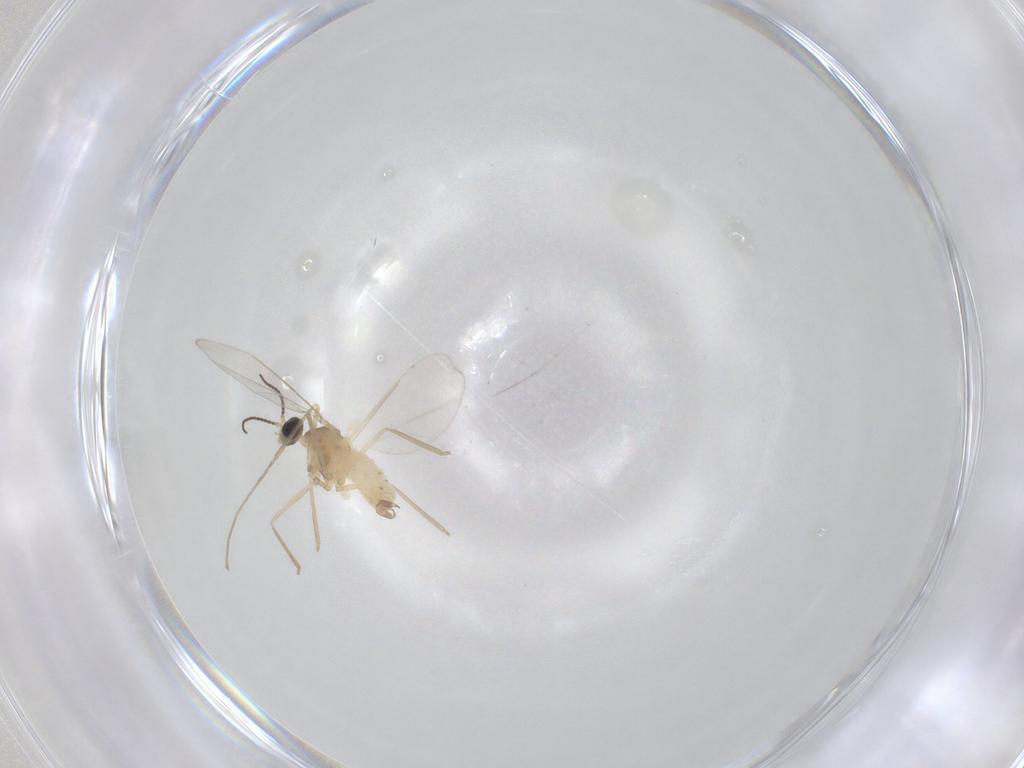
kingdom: Animalia
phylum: Arthropoda
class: Insecta
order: Diptera
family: Cecidomyiidae
